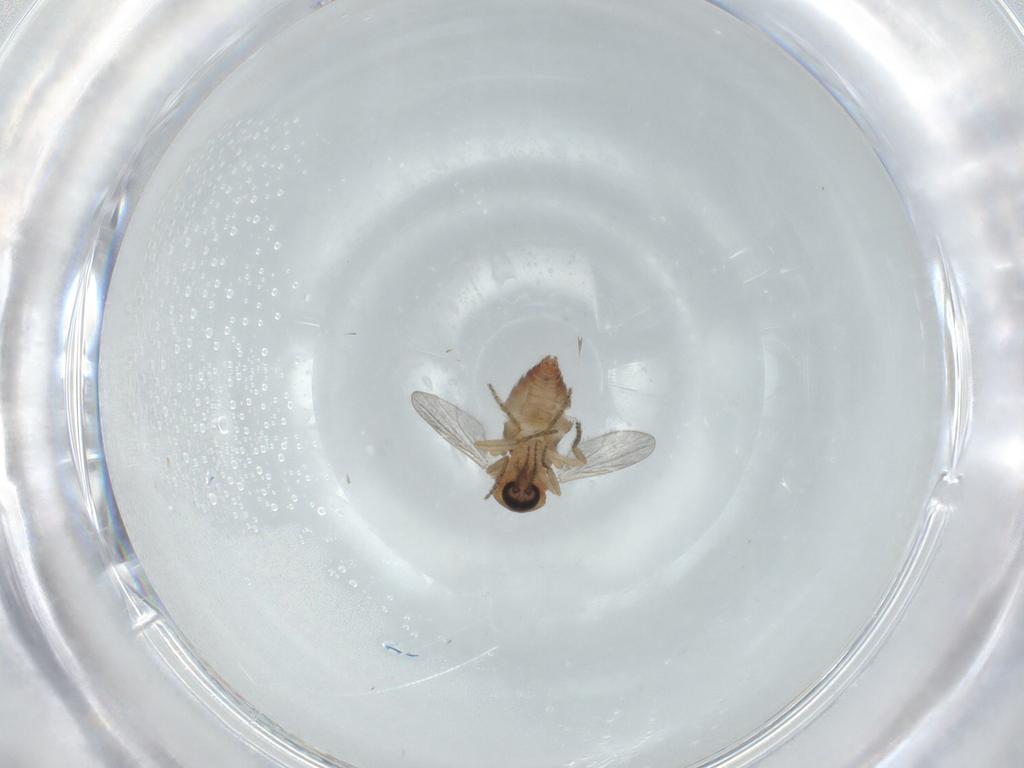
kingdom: Animalia
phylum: Arthropoda
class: Insecta
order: Diptera
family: Ceratopogonidae
